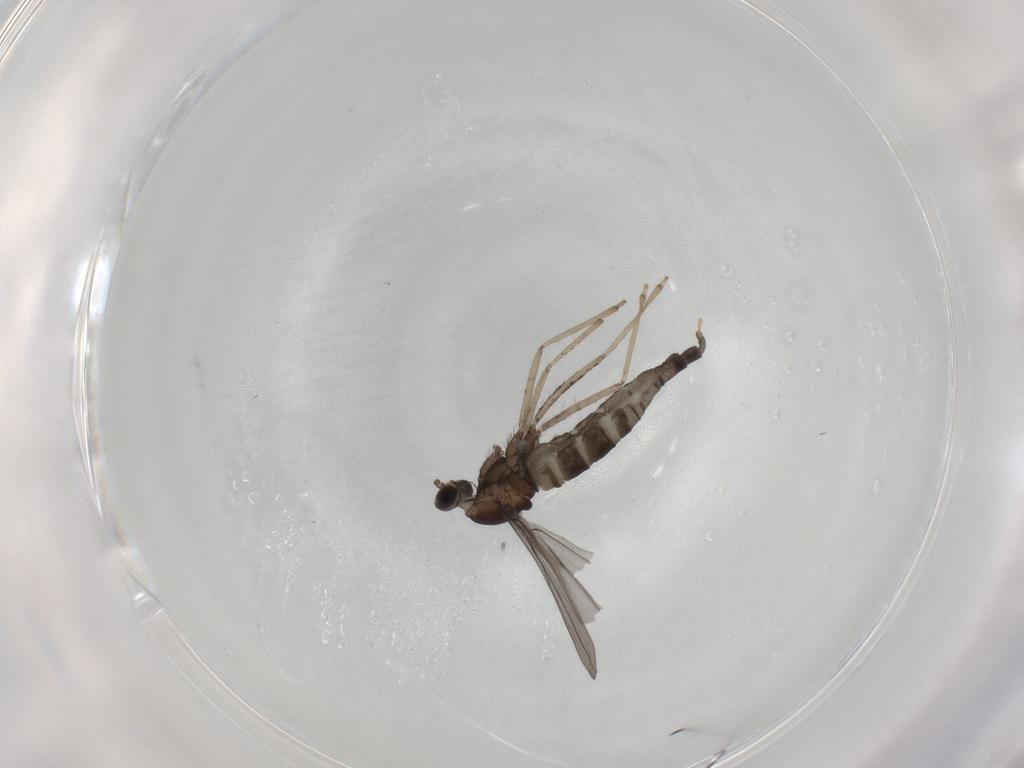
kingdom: Animalia
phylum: Arthropoda
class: Insecta
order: Diptera
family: Cecidomyiidae
